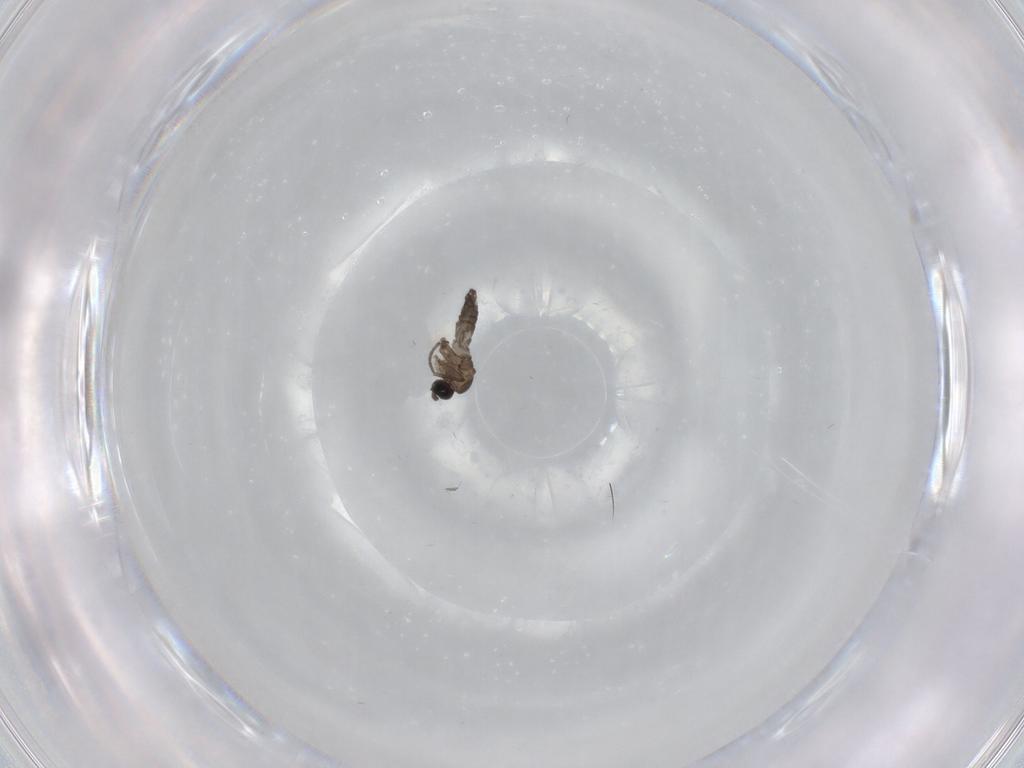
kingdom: Animalia
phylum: Arthropoda
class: Insecta
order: Diptera
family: Sciaridae
